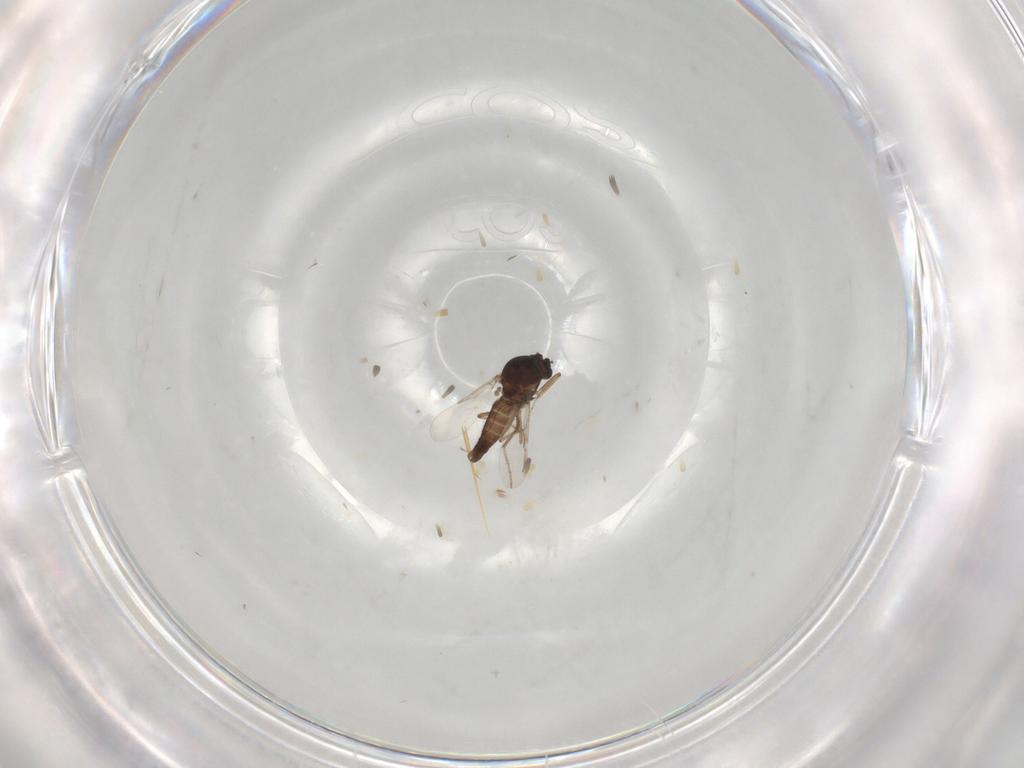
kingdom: Animalia
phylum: Arthropoda
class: Insecta
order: Diptera
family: Ceratopogonidae
